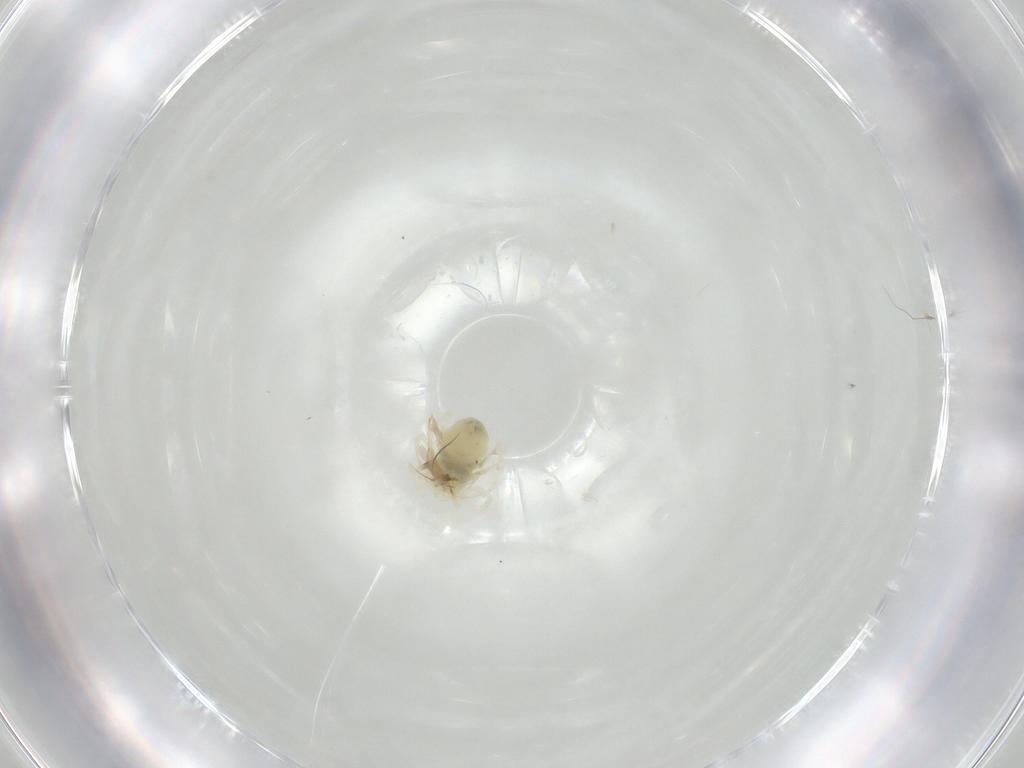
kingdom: Animalia
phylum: Arthropoda
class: Arachnida
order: Trombidiformes
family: Anystidae
